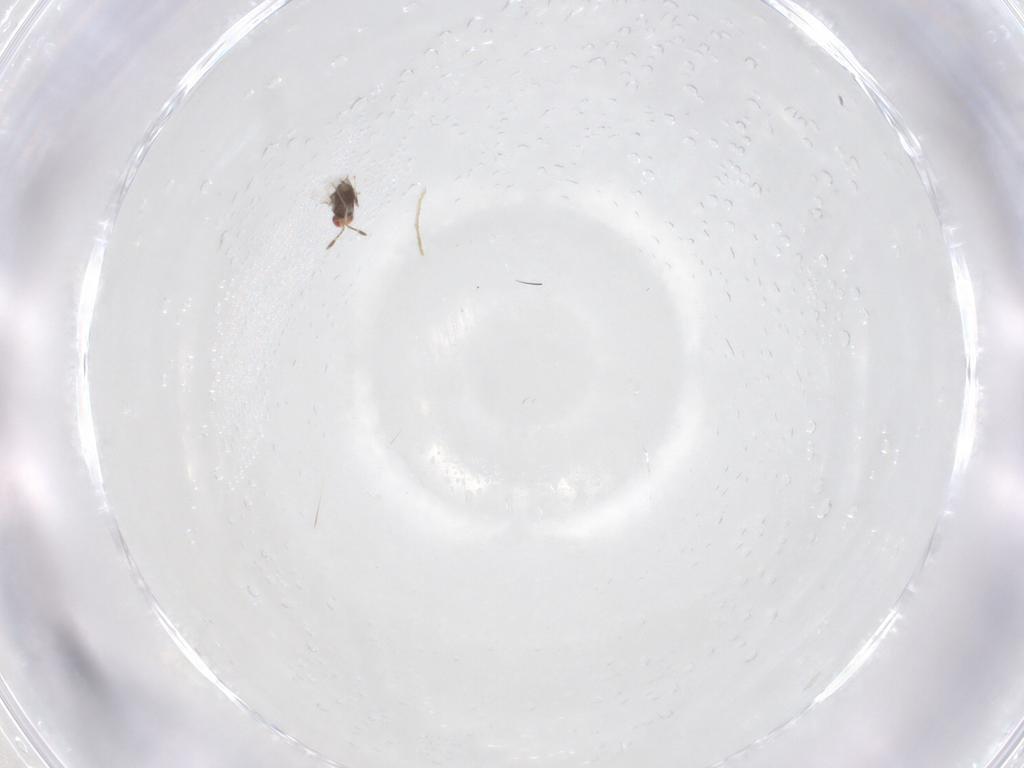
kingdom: Animalia
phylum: Arthropoda
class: Insecta
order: Hymenoptera
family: Azotidae
